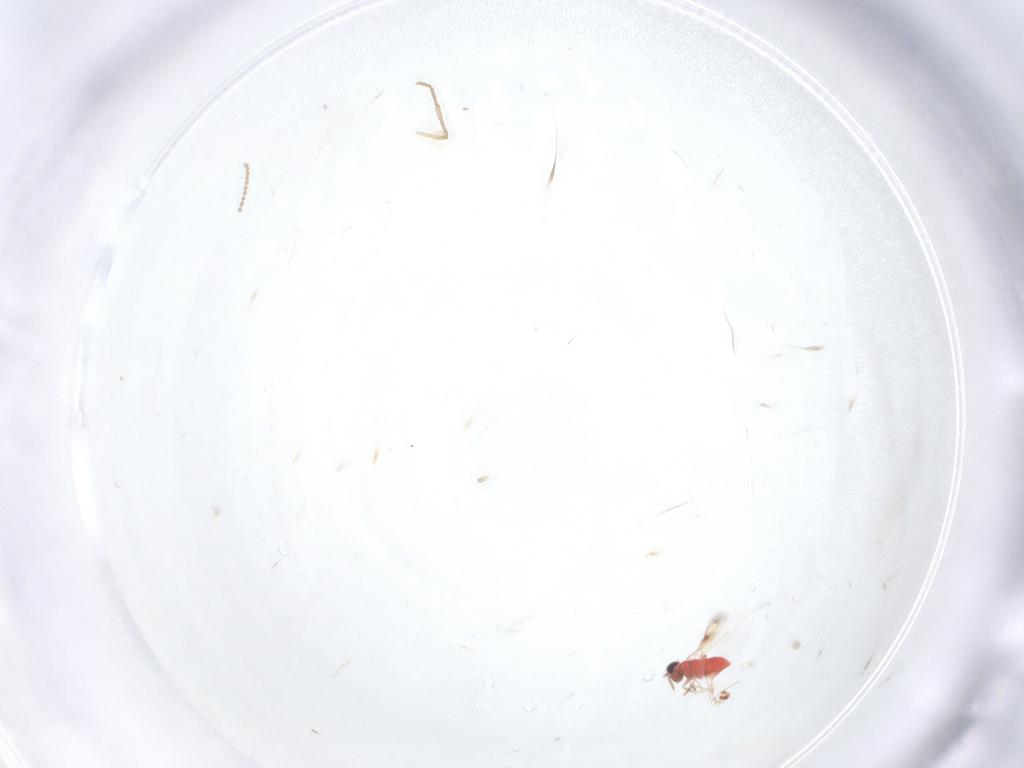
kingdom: Animalia
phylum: Arthropoda
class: Insecta
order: Hymenoptera
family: Trichogrammatidae
